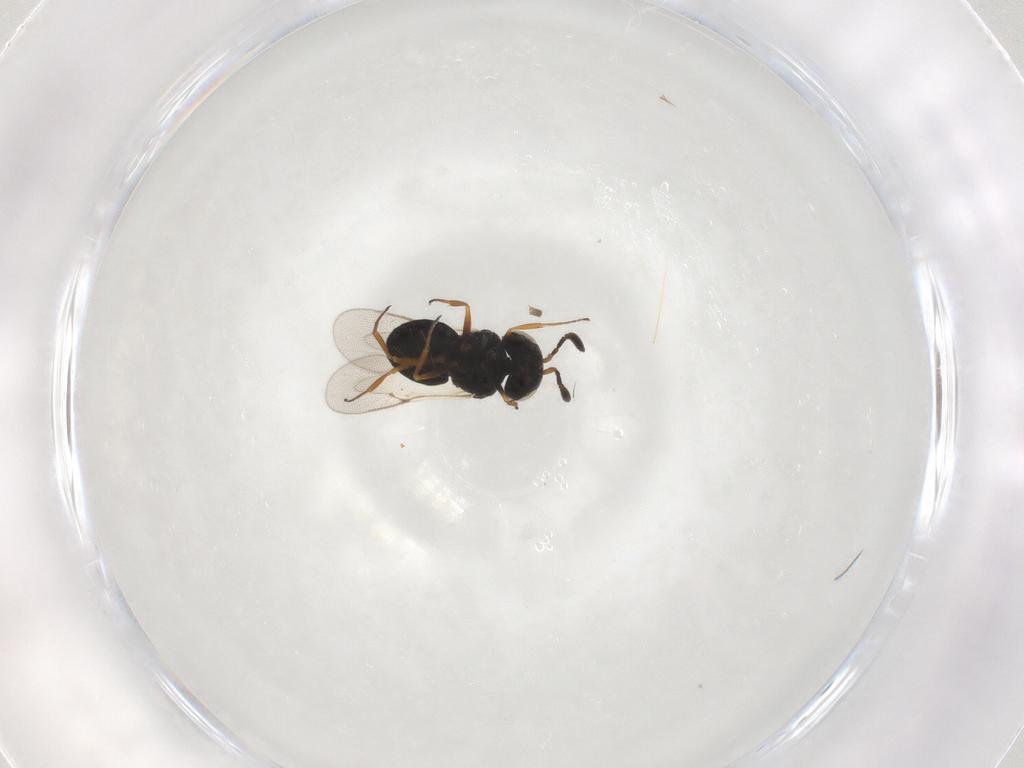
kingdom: Animalia
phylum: Arthropoda
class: Insecta
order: Hymenoptera
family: Scelionidae
